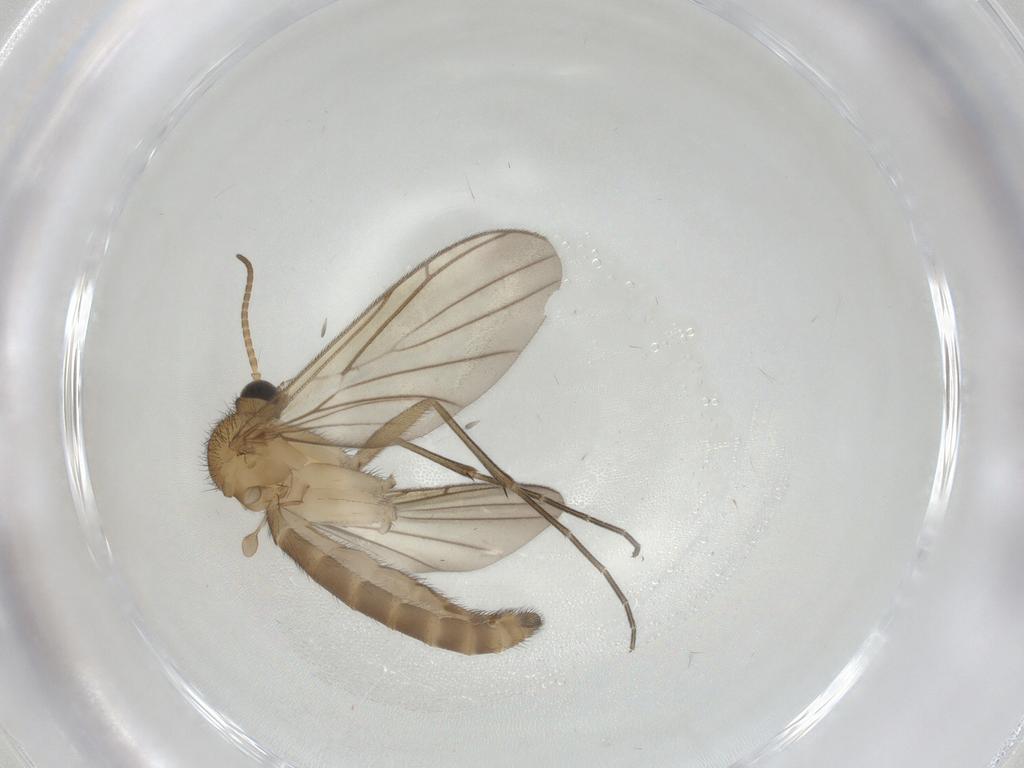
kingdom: Animalia
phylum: Arthropoda
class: Insecta
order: Diptera
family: Keroplatidae
